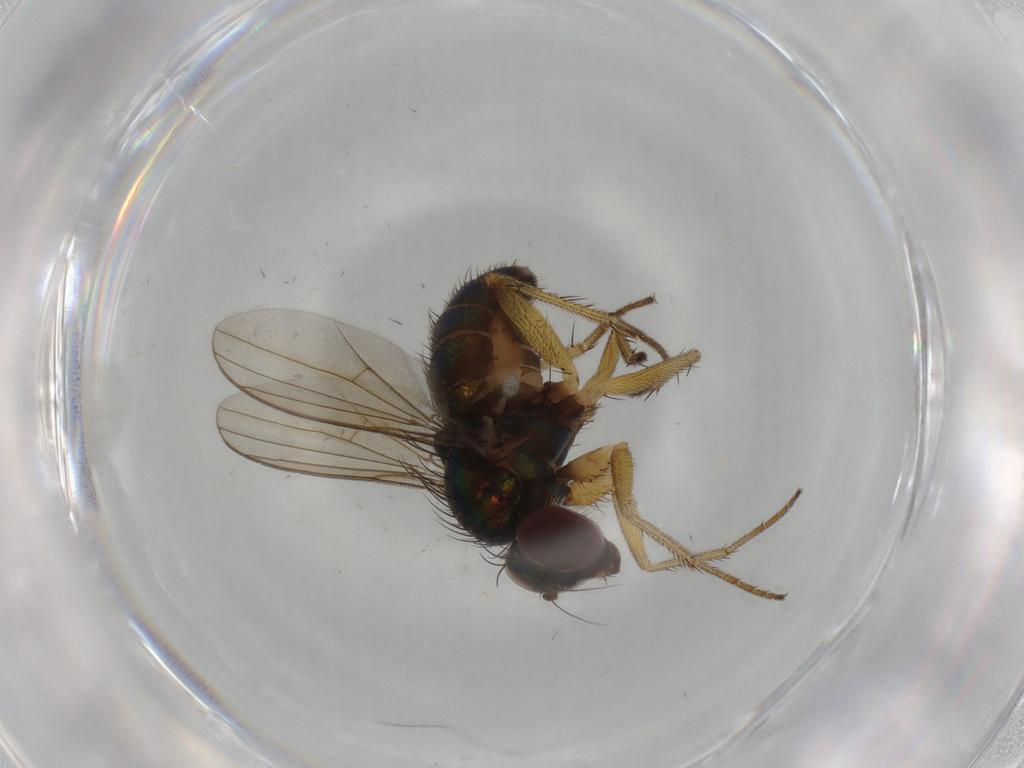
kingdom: Animalia
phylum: Arthropoda
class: Insecta
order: Diptera
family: Dolichopodidae
